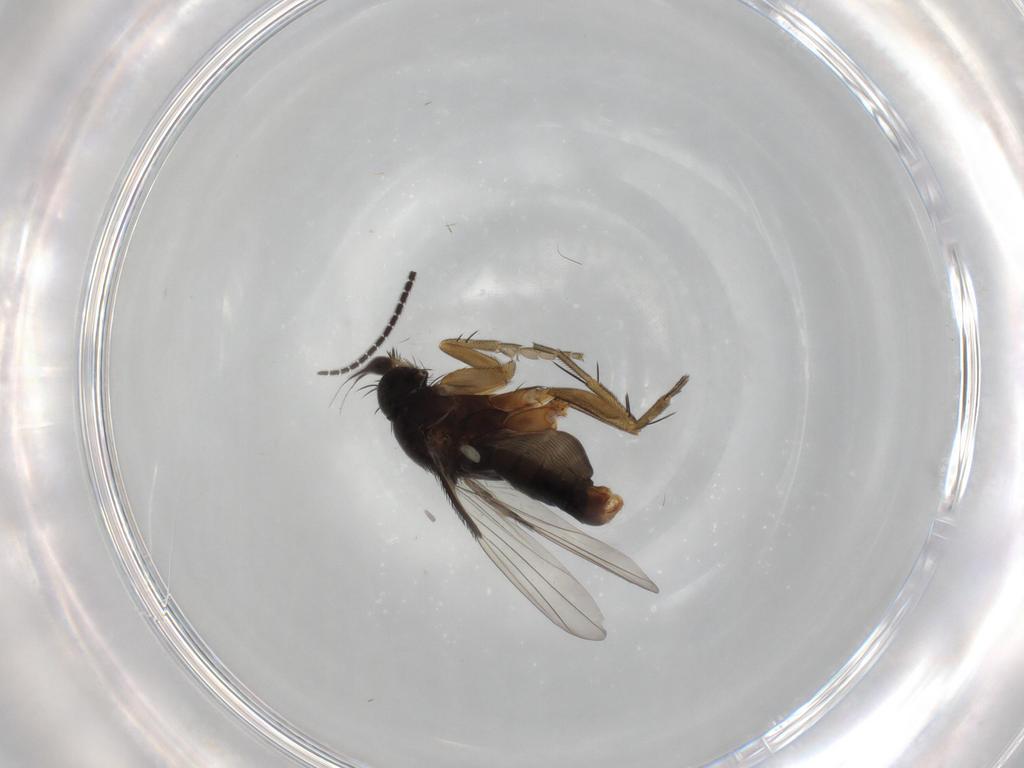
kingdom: Animalia
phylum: Arthropoda
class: Insecta
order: Diptera
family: Phoridae
